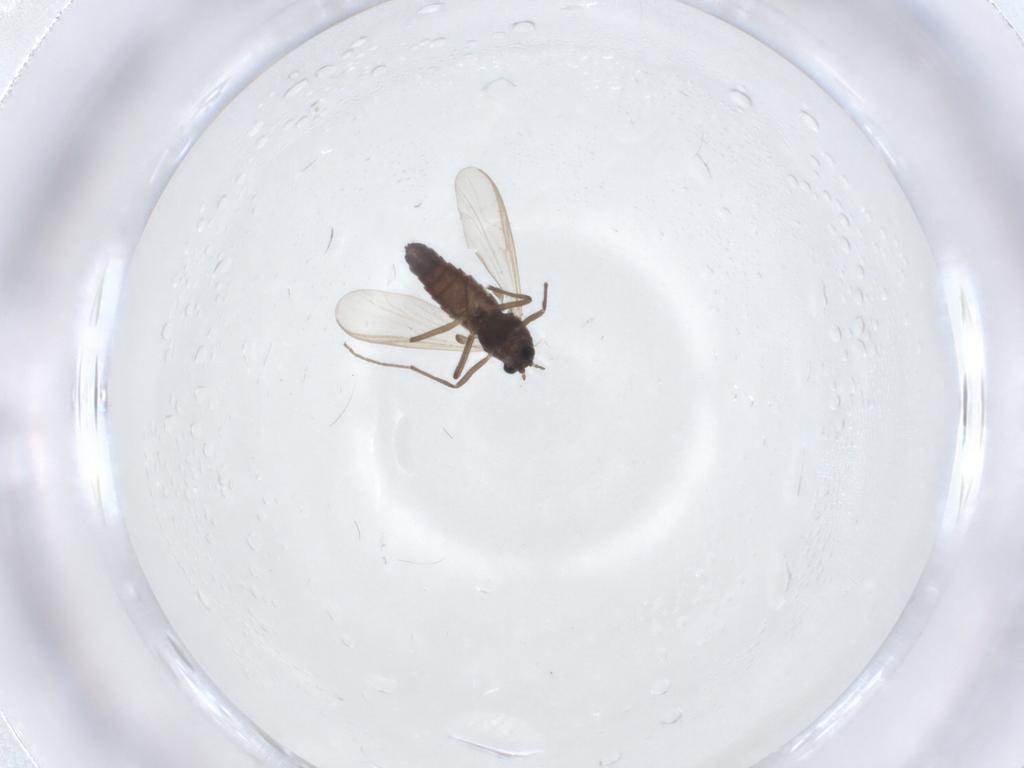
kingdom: Animalia
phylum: Arthropoda
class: Insecta
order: Diptera
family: Chironomidae
